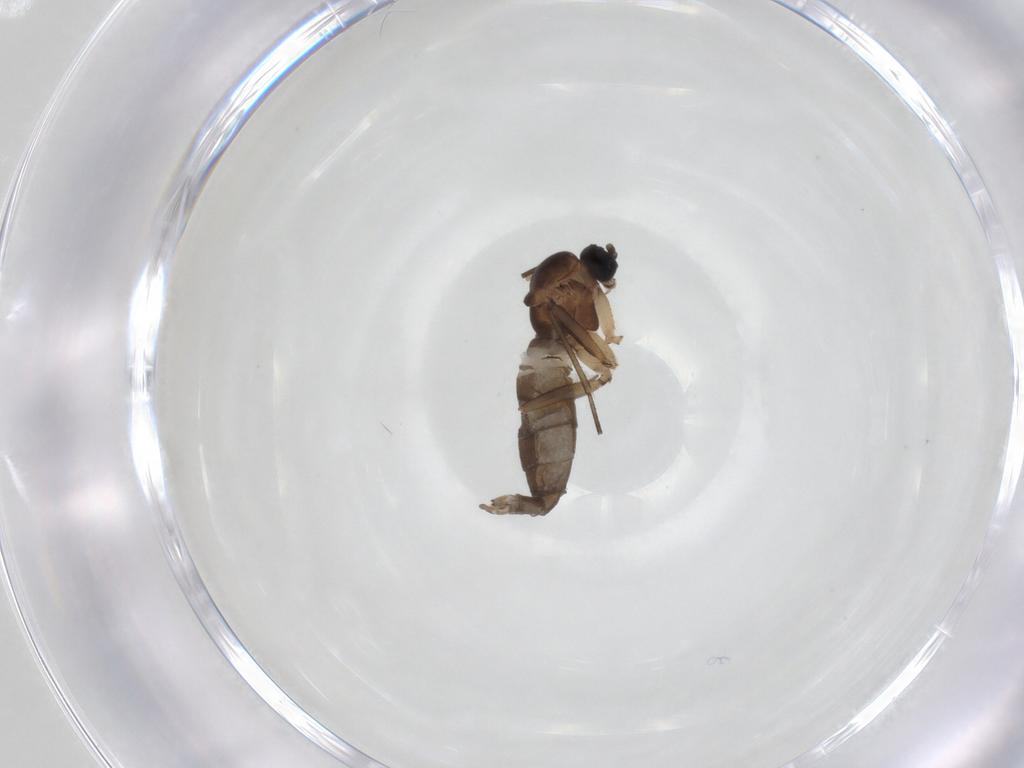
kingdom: Animalia
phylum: Arthropoda
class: Insecta
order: Diptera
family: Sciaridae
